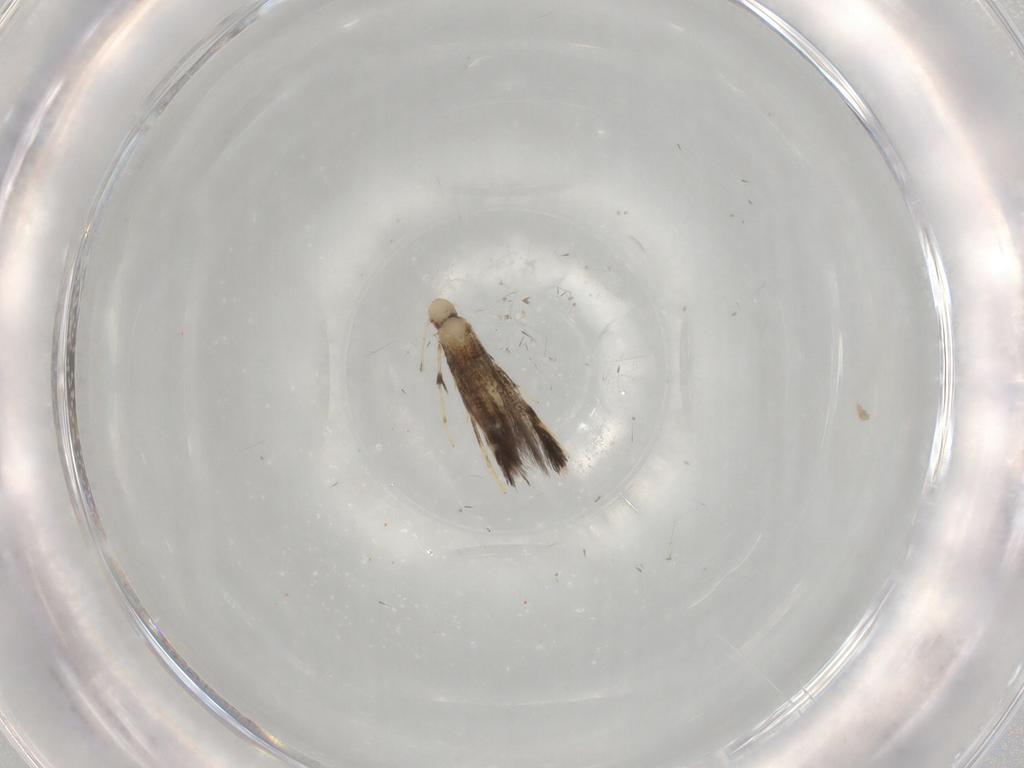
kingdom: Animalia
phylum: Arthropoda
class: Insecta
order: Lepidoptera
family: Gracillariidae
